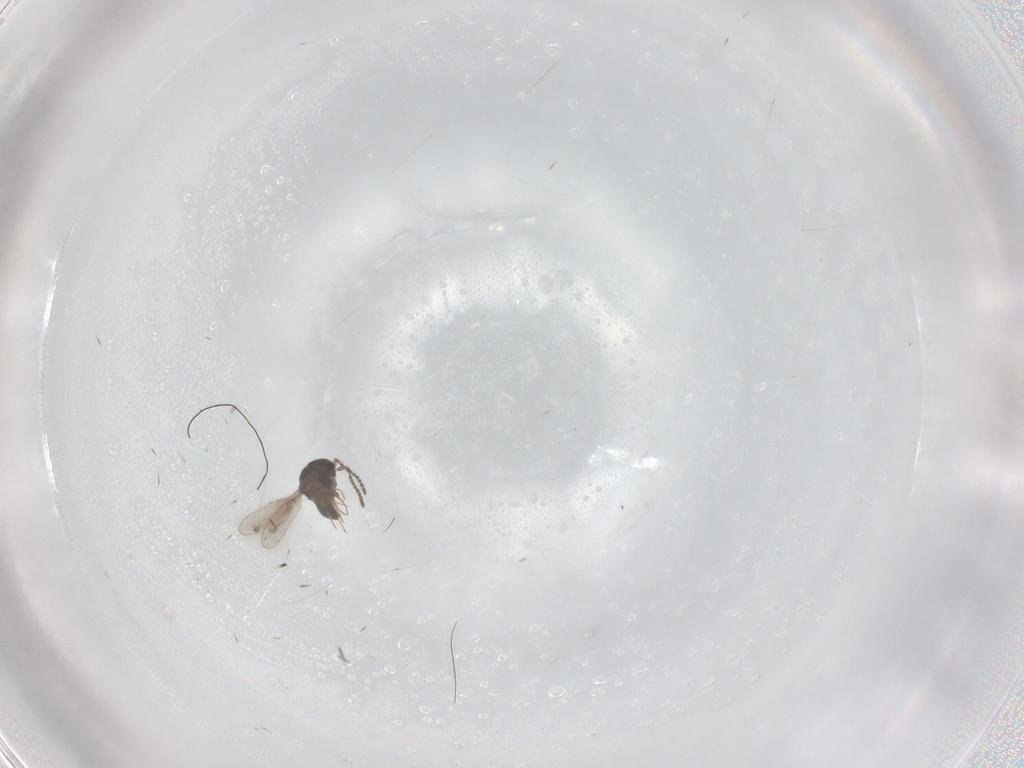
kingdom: Animalia
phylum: Arthropoda
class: Insecta
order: Hymenoptera
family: Scelionidae
